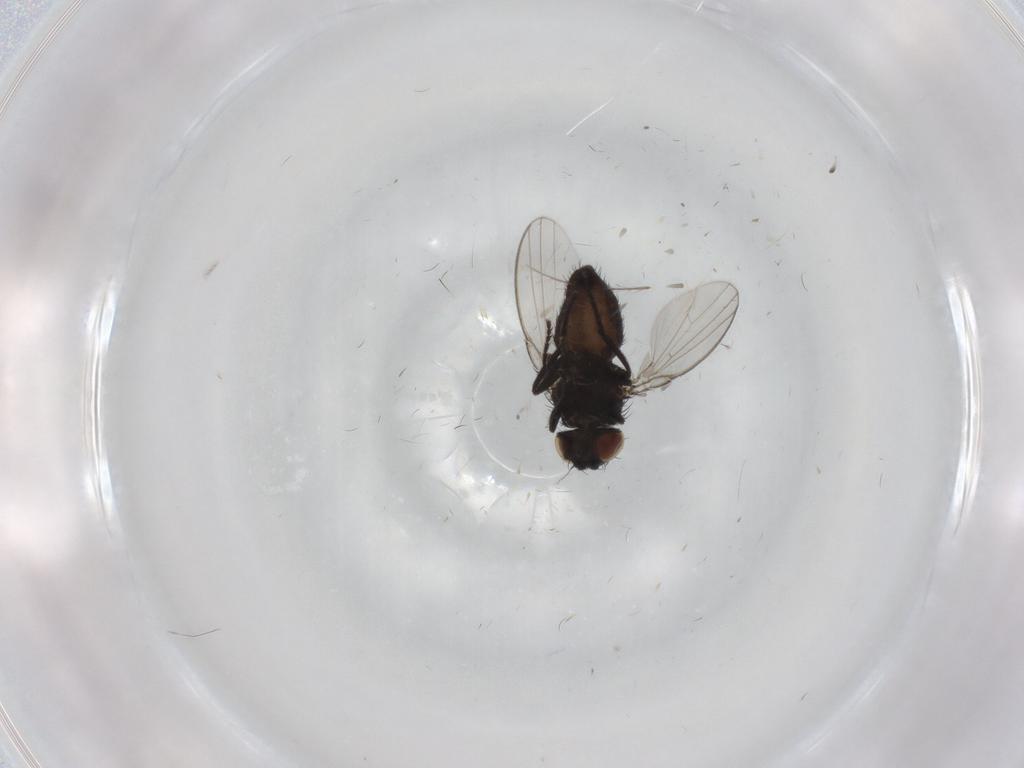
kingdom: Animalia
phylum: Arthropoda
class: Insecta
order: Diptera
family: Milichiidae
